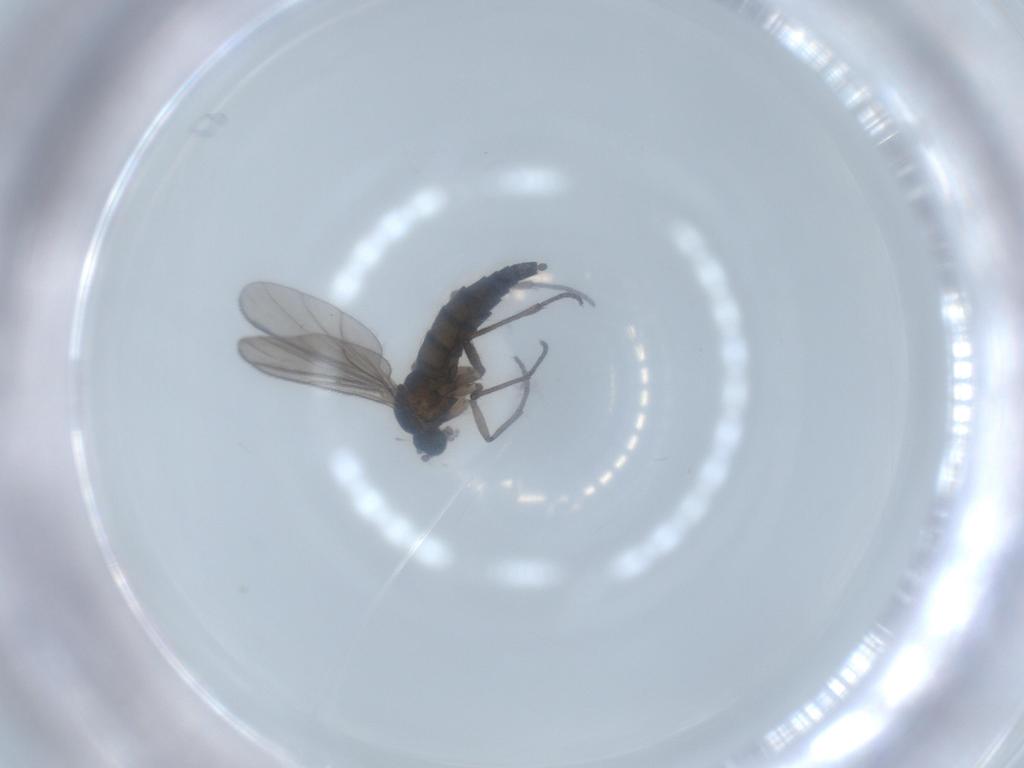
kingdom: Animalia
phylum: Arthropoda
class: Insecta
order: Diptera
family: Sciaridae
